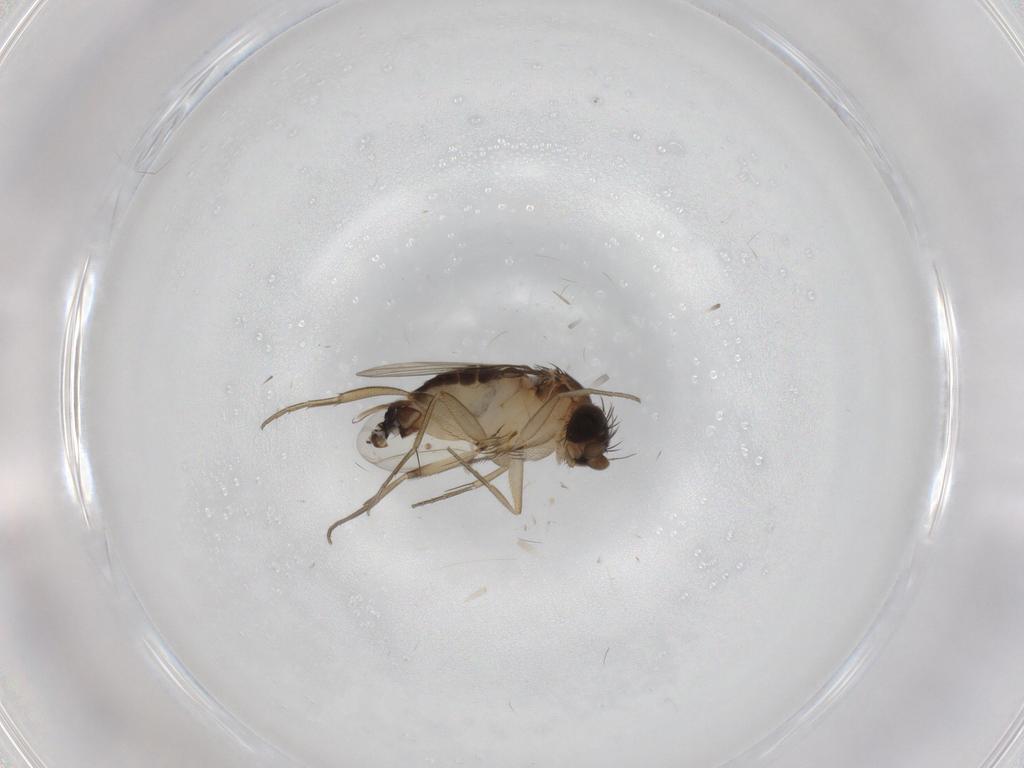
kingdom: Animalia
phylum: Arthropoda
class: Insecta
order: Diptera
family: Phoridae
